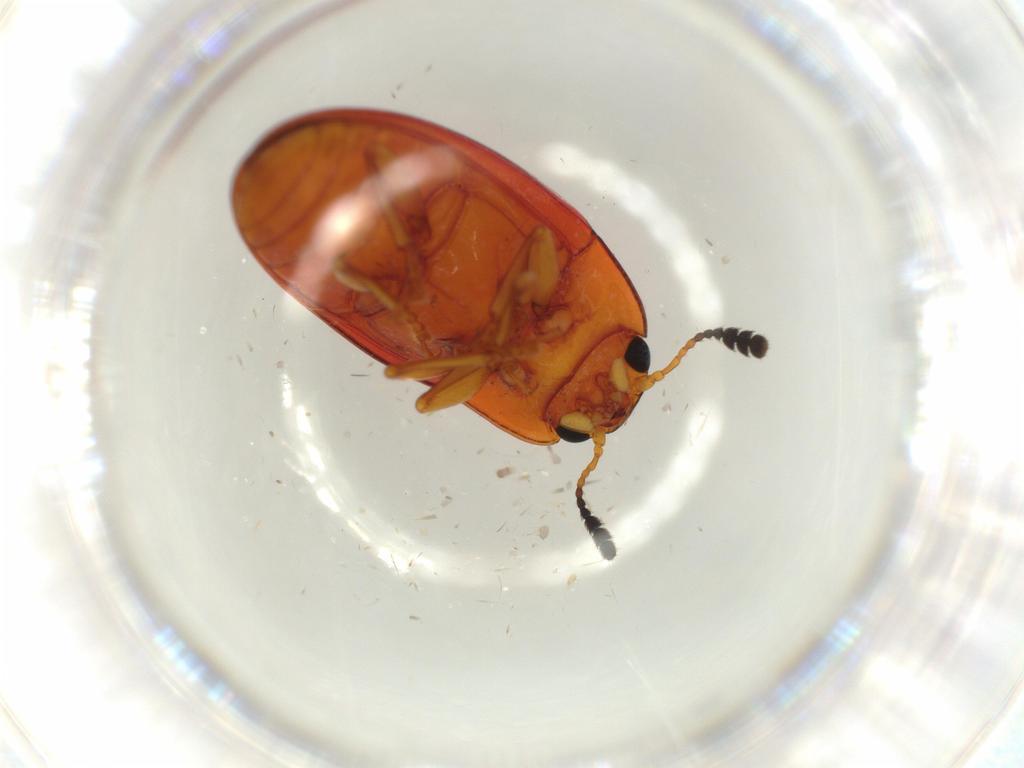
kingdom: Animalia
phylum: Arthropoda
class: Insecta
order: Coleoptera
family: Erotylidae
